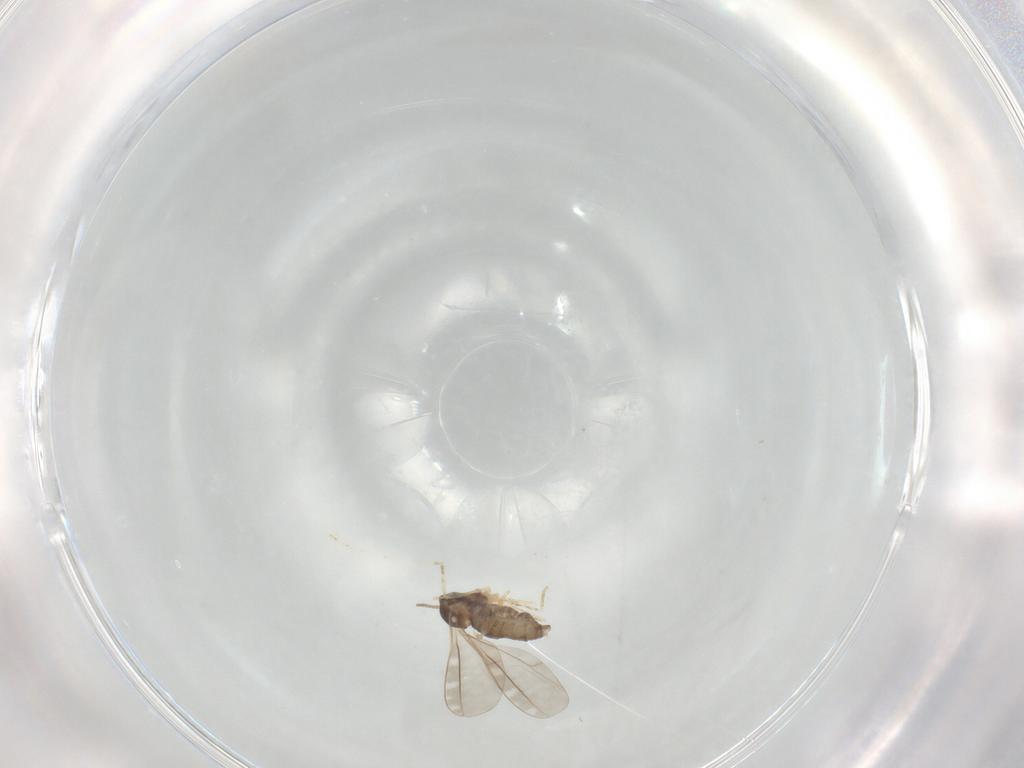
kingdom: Animalia
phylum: Arthropoda
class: Insecta
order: Diptera
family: Cecidomyiidae
